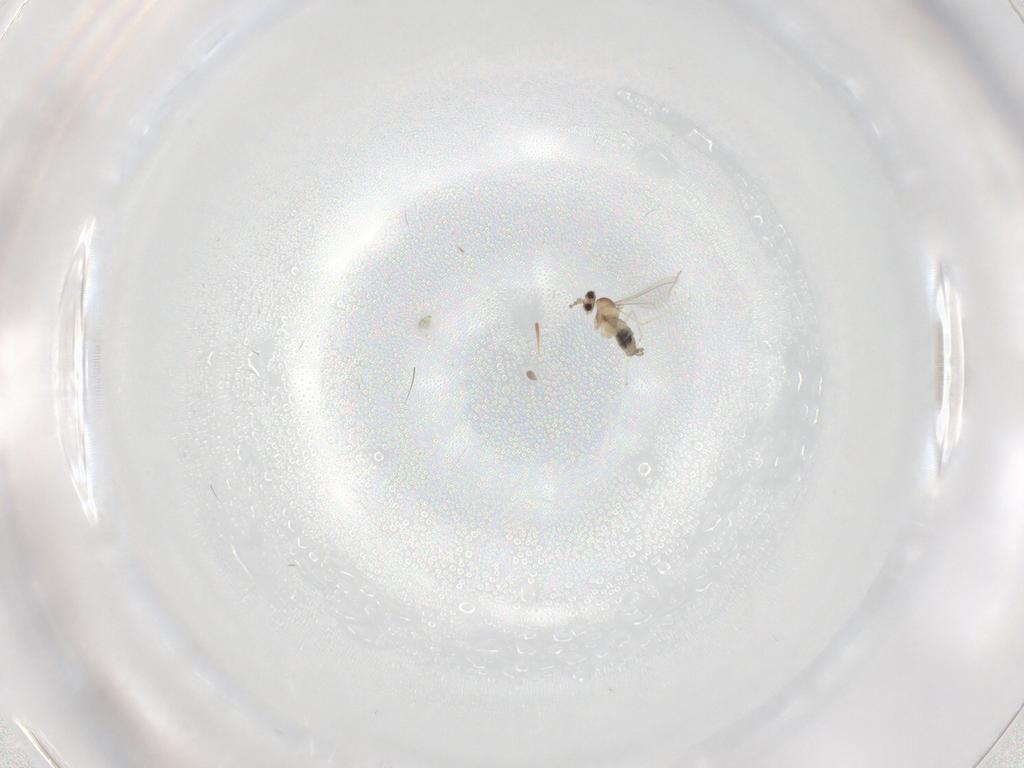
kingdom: Animalia
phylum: Arthropoda
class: Insecta
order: Diptera
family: Cecidomyiidae
